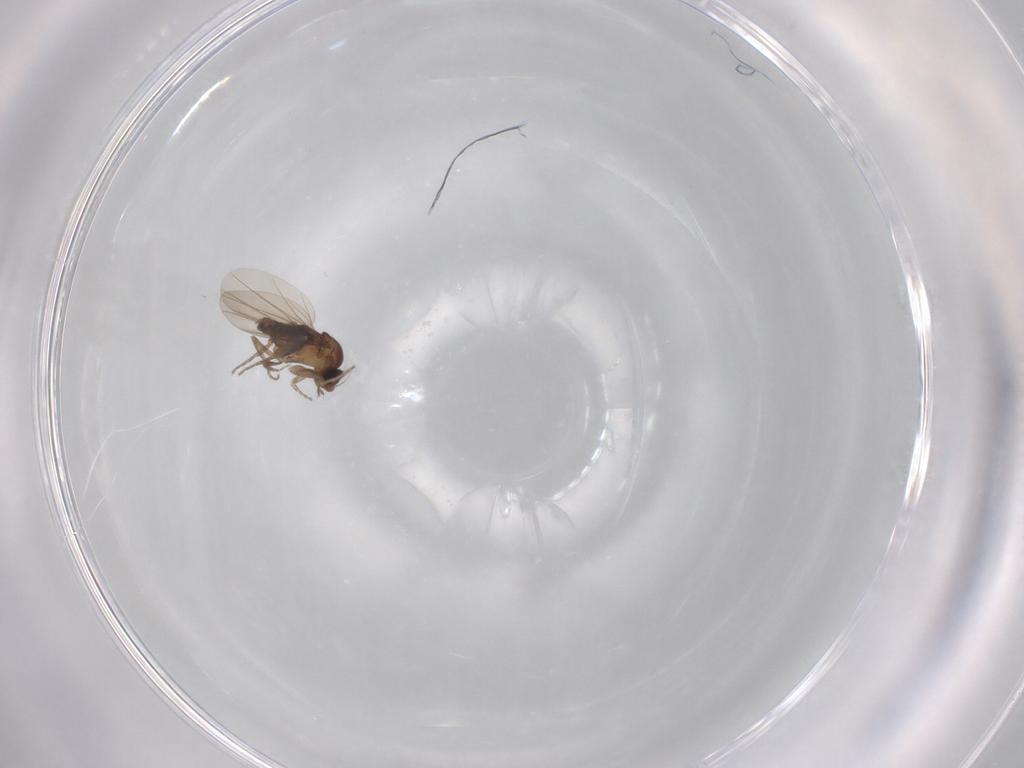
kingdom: Animalia
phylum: Arthropoda
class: Insecta
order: Diptera
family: Phoridae
